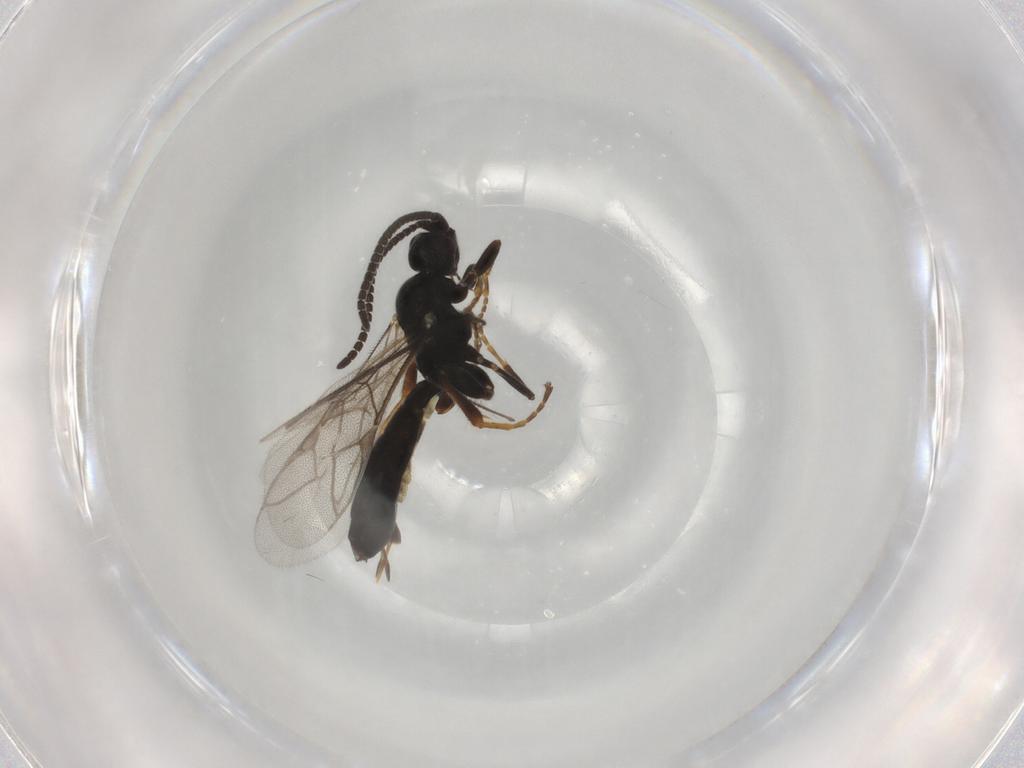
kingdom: Animalia
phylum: Arthropoda
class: Insecta
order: Hymenoptera
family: Ichneumonidae
